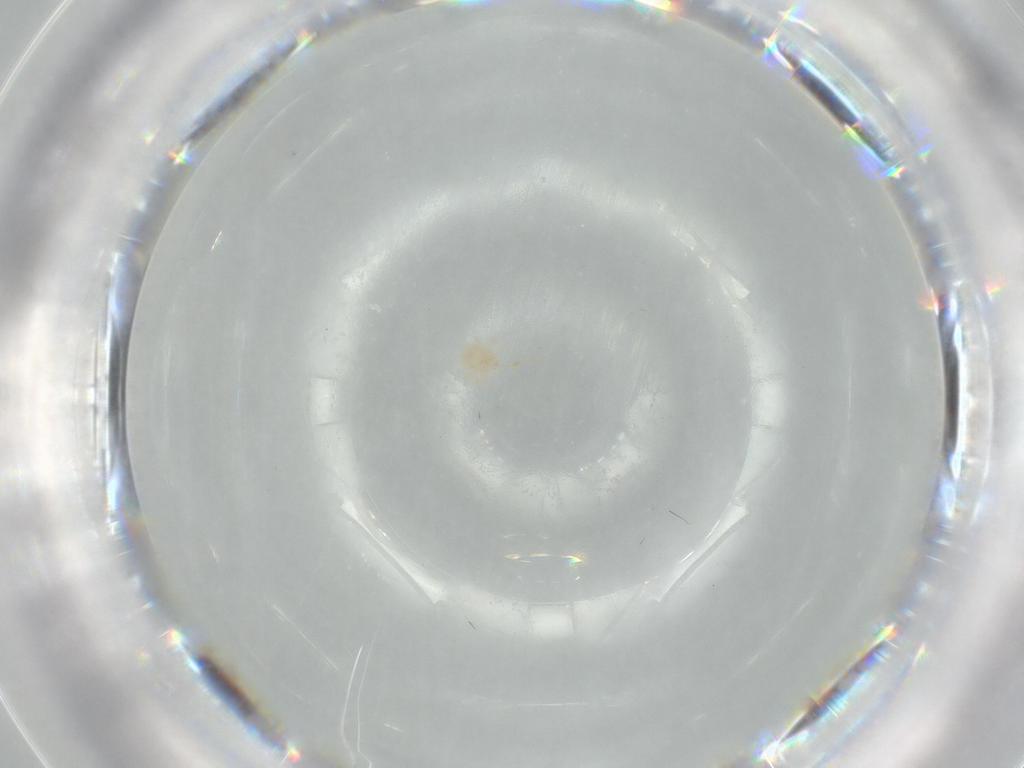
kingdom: Animalia
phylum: Arthropoda
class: Arachnida
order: Trombidiformes
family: Anystidae
